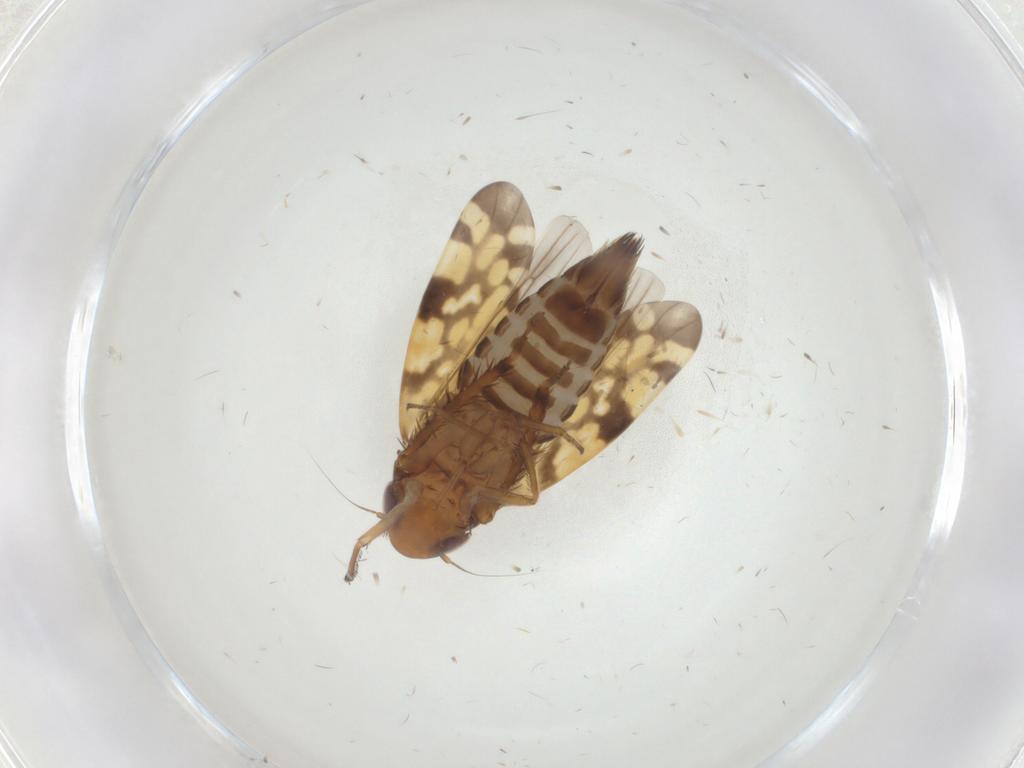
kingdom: Animalia
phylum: Arthropoda
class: Insecta
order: Hemiptera
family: Cicadellidae
